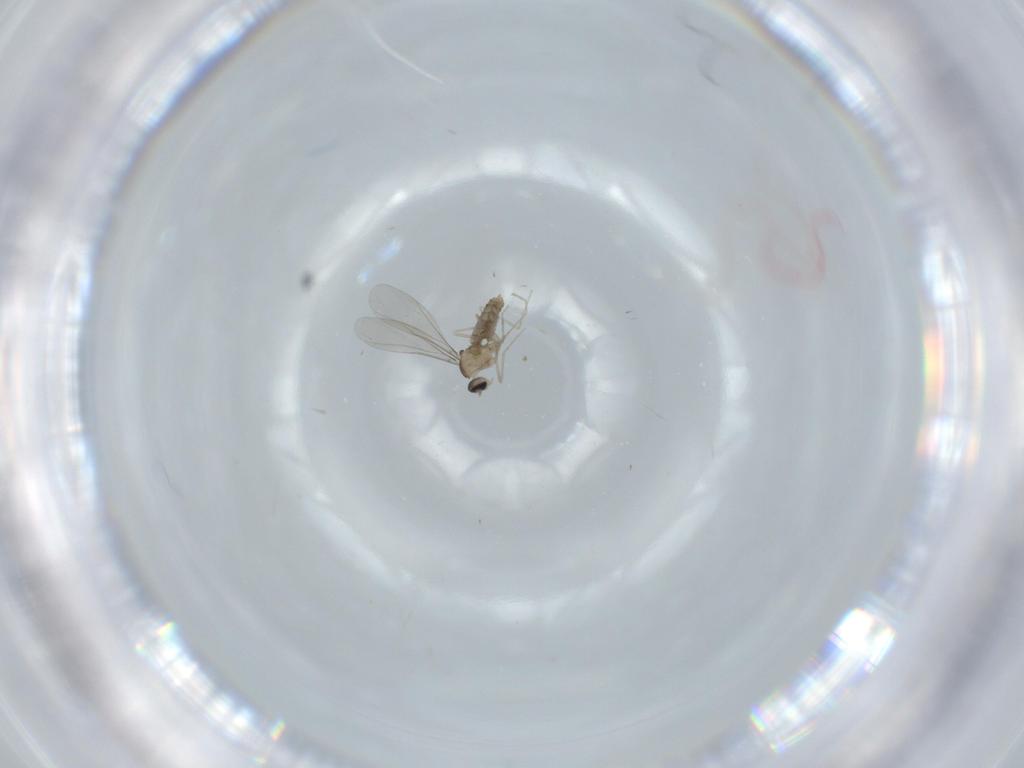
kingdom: Animalia
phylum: Arthropoda
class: Insecta
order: Diptera
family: Cecidomyiidae
